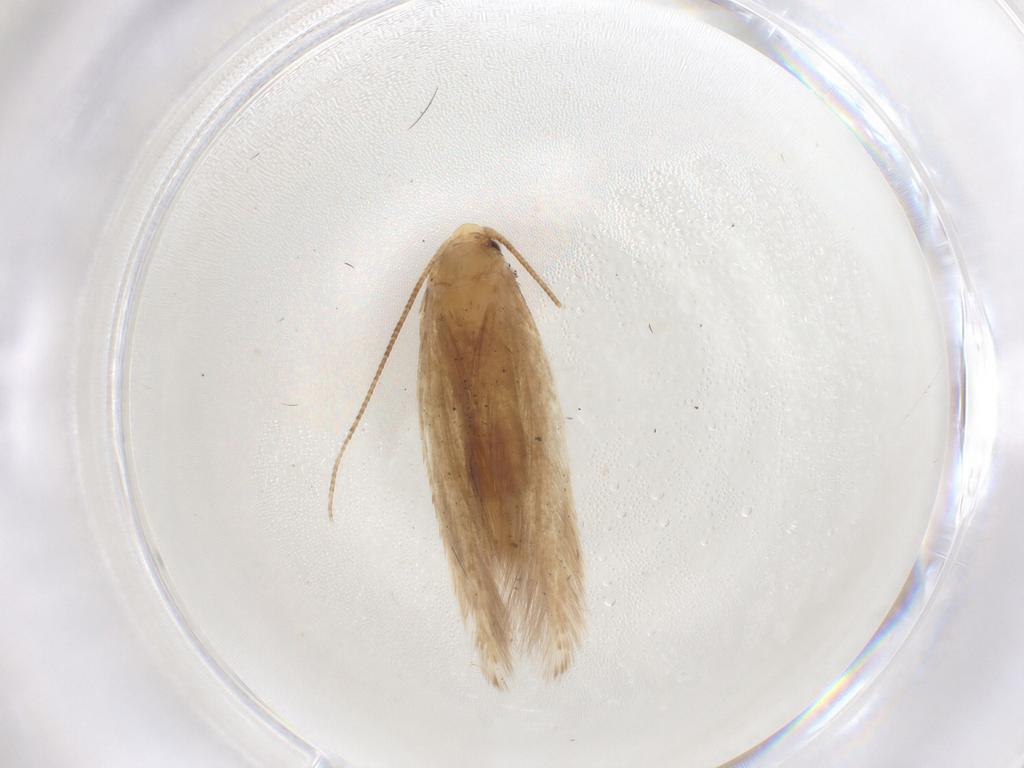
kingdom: Animalia
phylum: Arthropoda
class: Insecta
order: Lepidoptera
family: Tineidae
